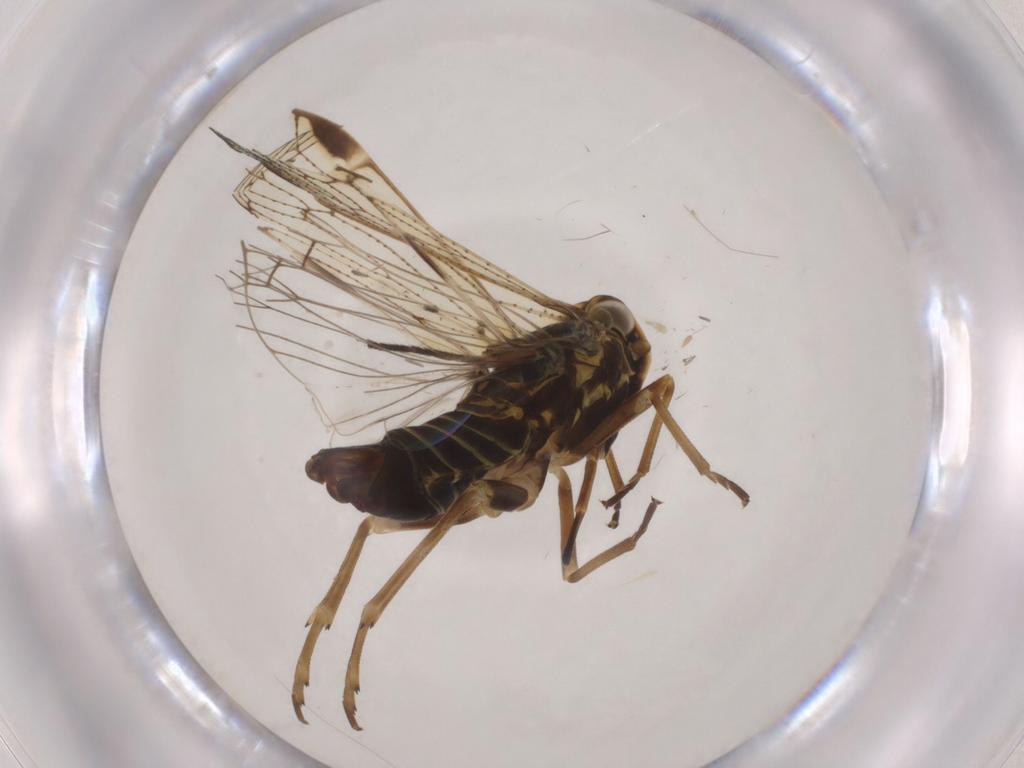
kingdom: Animalia
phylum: Arthropoda
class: Insecta
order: Hemiptera
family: Cixiidae
